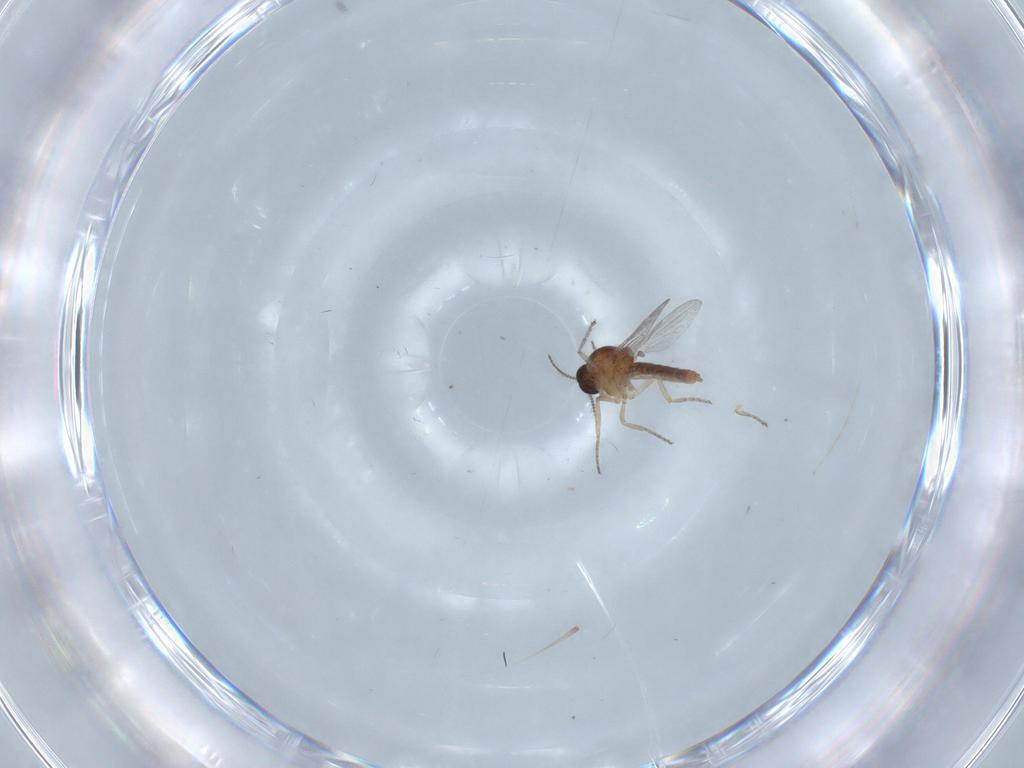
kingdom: Animalia
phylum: Arthropoda
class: Insecta
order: Diptera
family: Ceratopogonidae
